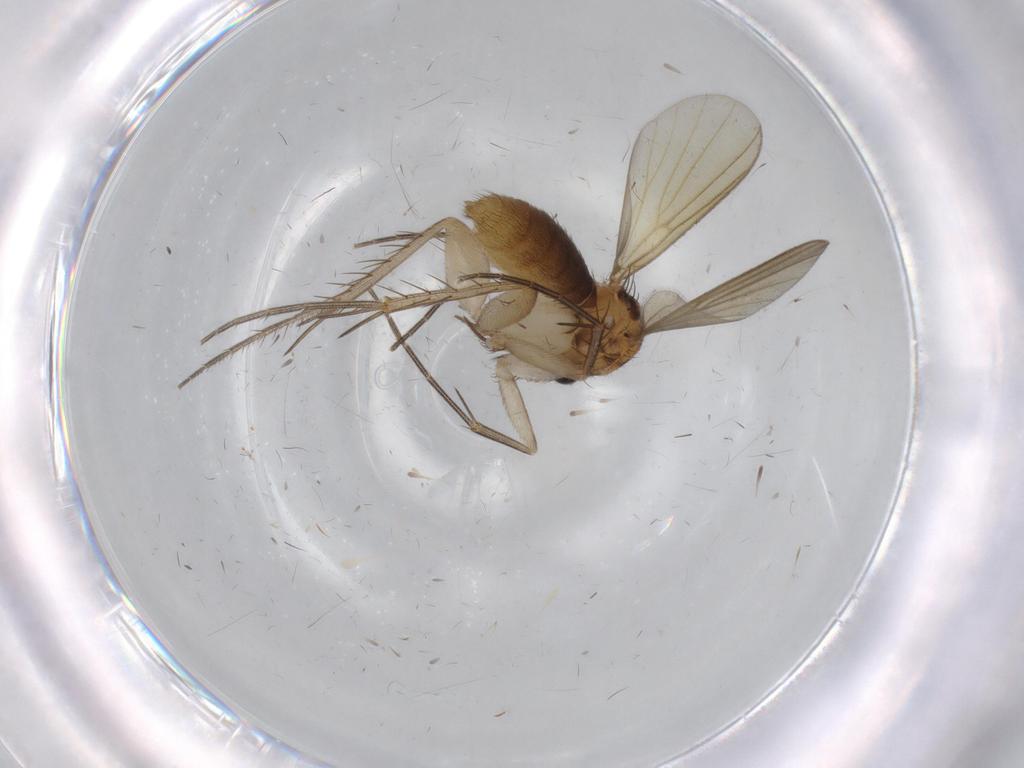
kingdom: Animalia
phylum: Arthropoda
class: Insecta
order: Diptera
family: Mycetophilidae
